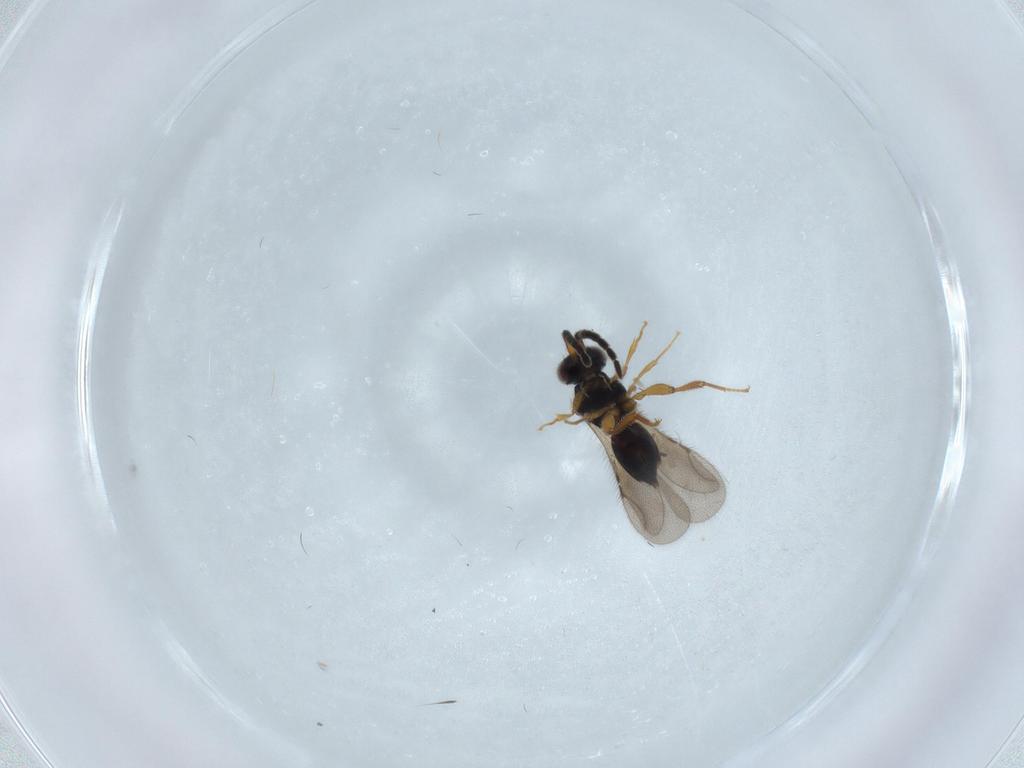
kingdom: Animalia
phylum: Arthropoda
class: Insecta
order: Hymenoptera
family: Ceraphronidae
